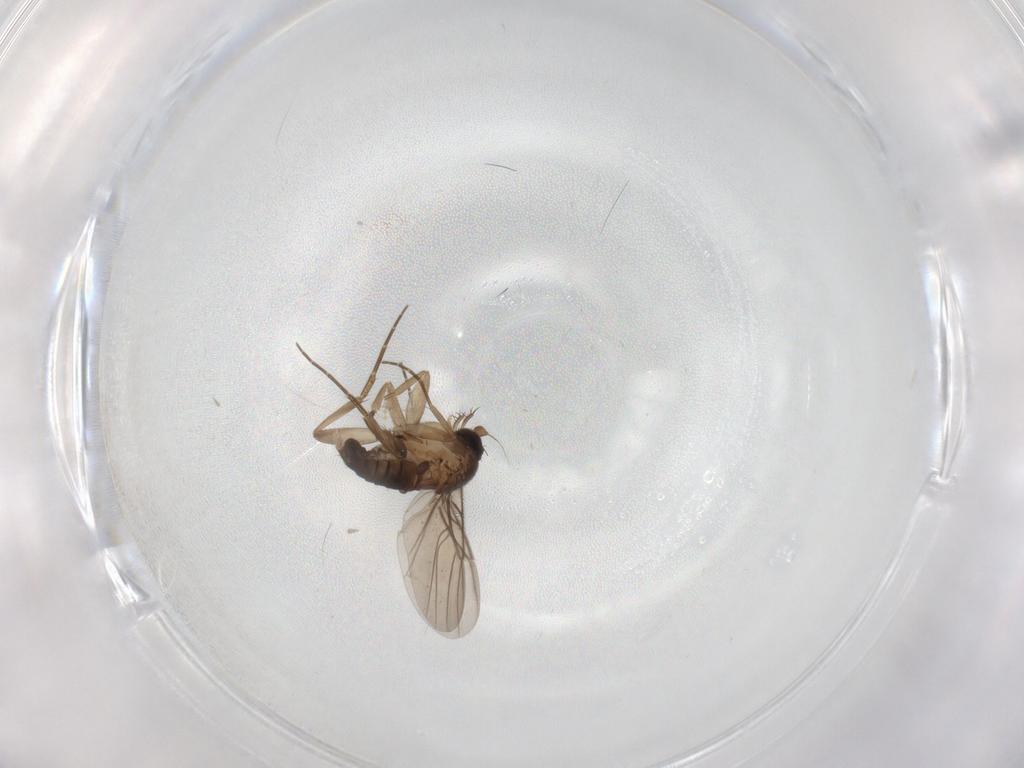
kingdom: Animalia
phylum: Arthropoda
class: Insecta
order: Diptera
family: Phoridae
